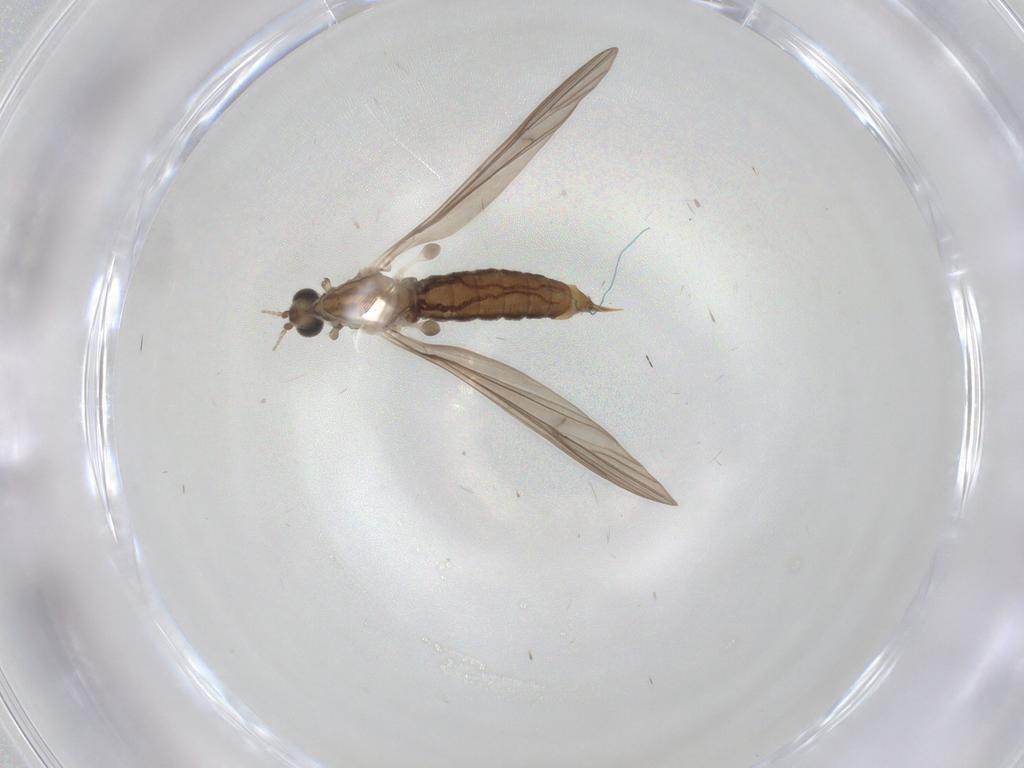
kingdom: Animalia
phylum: Arthropoda
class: Insecta
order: Diptera
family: Limoniidae
